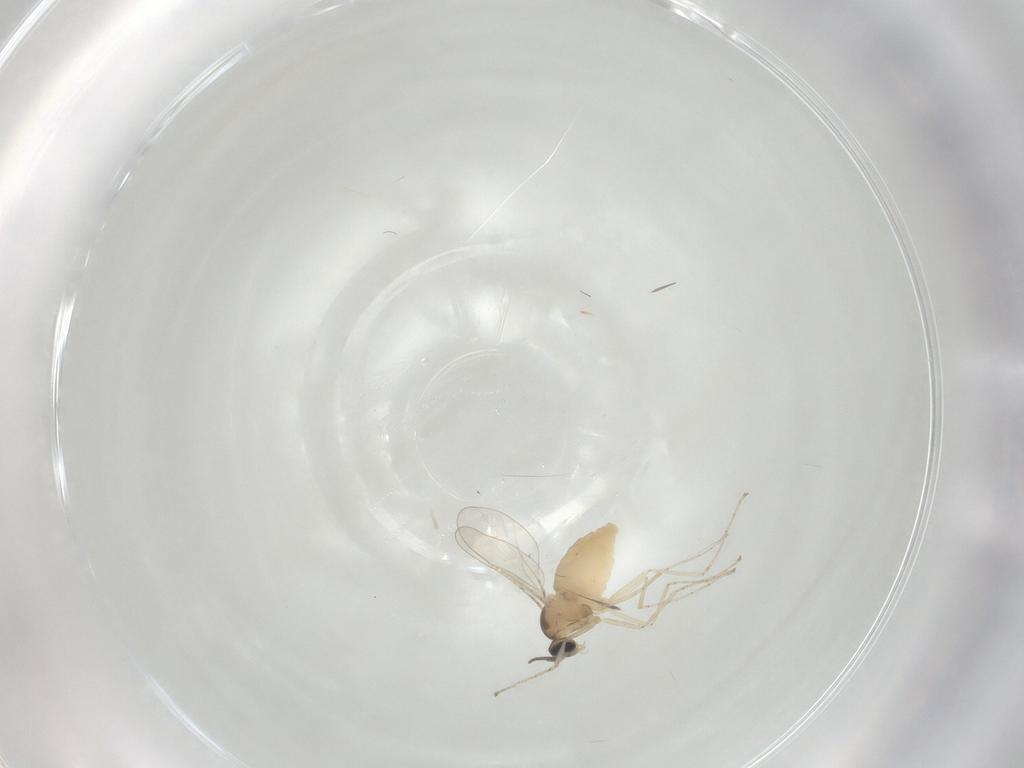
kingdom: Animalia
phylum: Arthropoda
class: Insecta
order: Diptera
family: Cecidomyiidae
